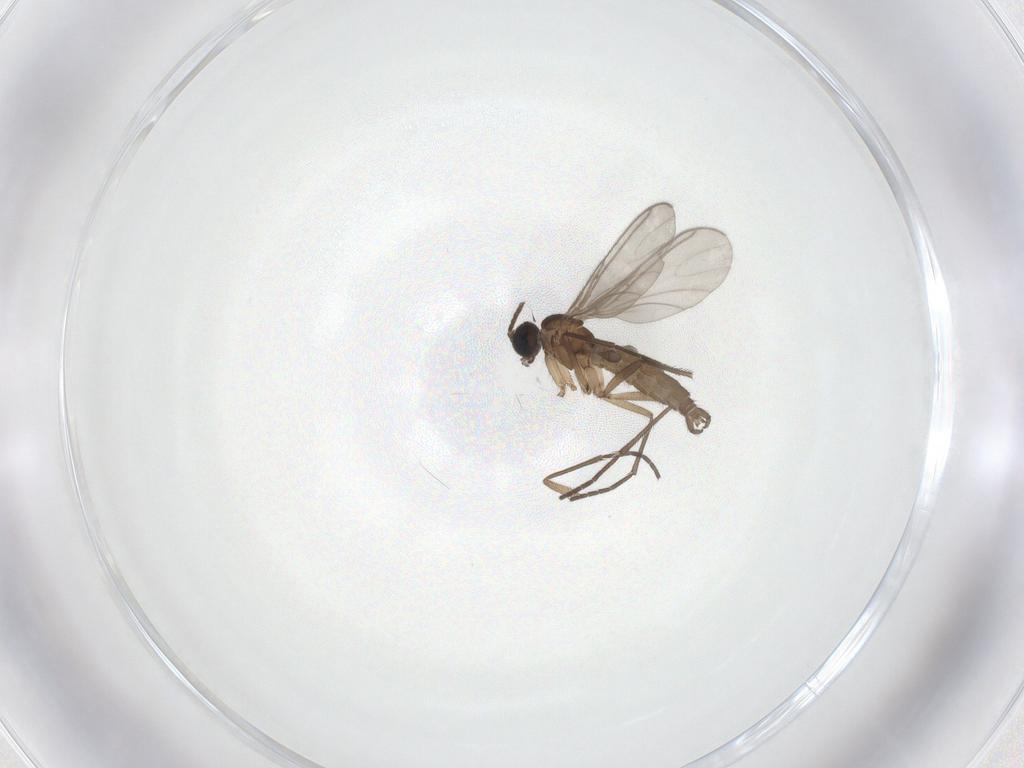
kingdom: Animalia
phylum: Arthropoda
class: Insecta
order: Diptera
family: Sciaridae
